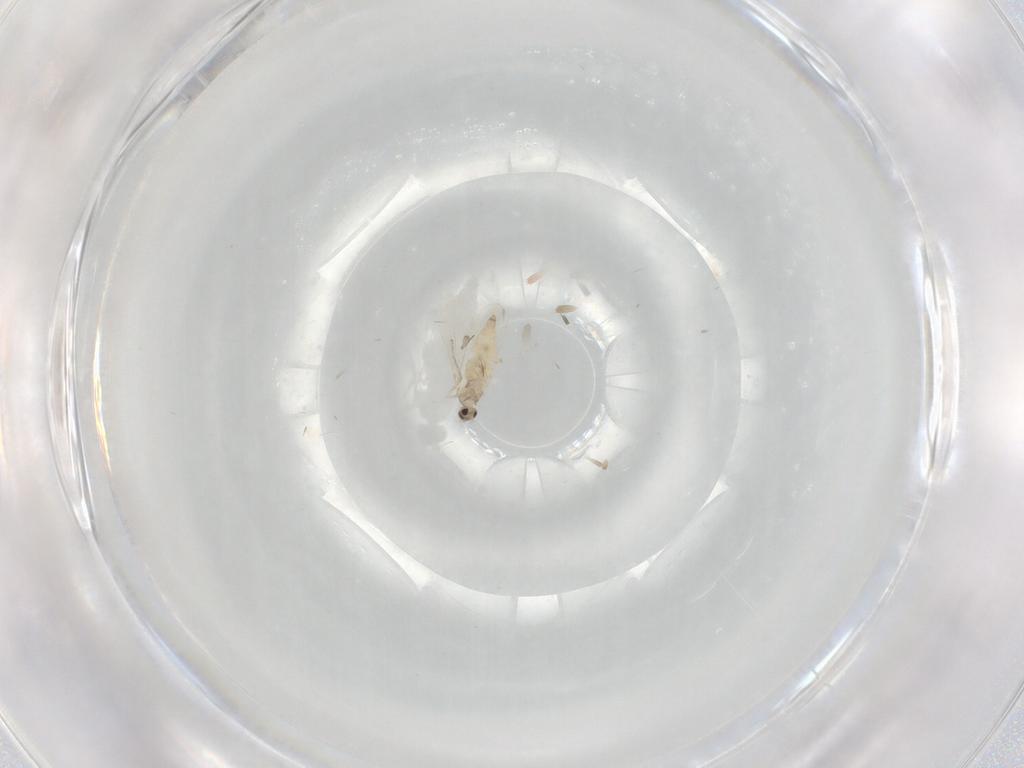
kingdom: Animalia
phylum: Arthropoda
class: Insecta
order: Diptera
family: Cecidomyiidae
